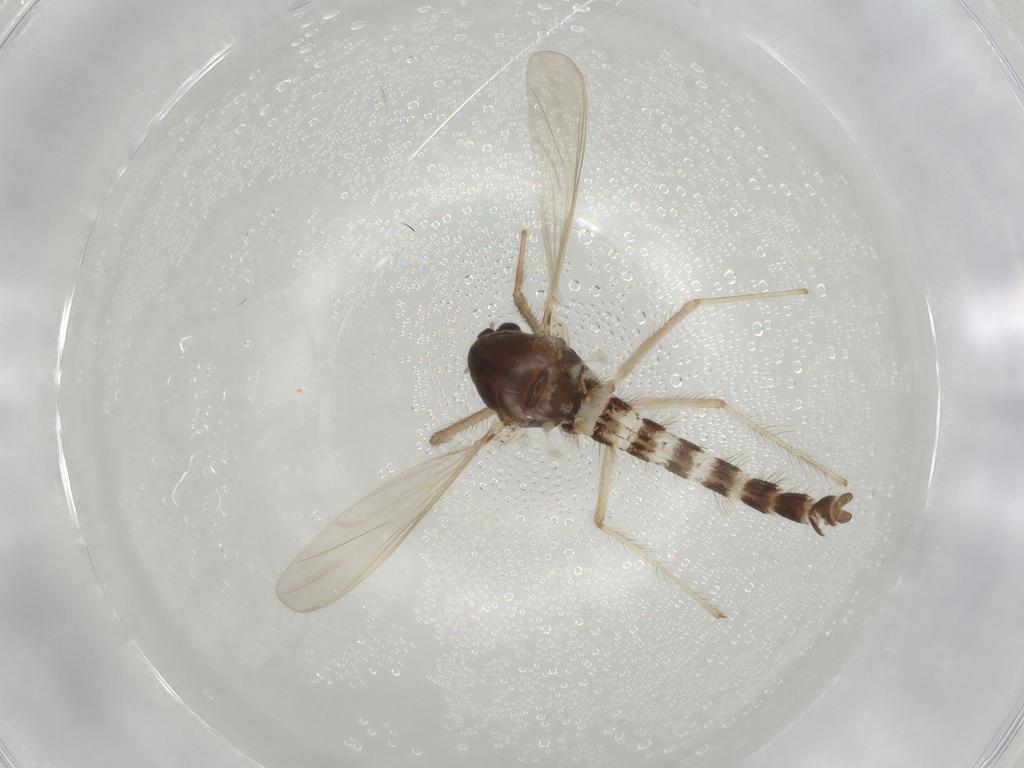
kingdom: Animalia
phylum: Arthropoda
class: Insecta
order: Diptera
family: Chironomidae
